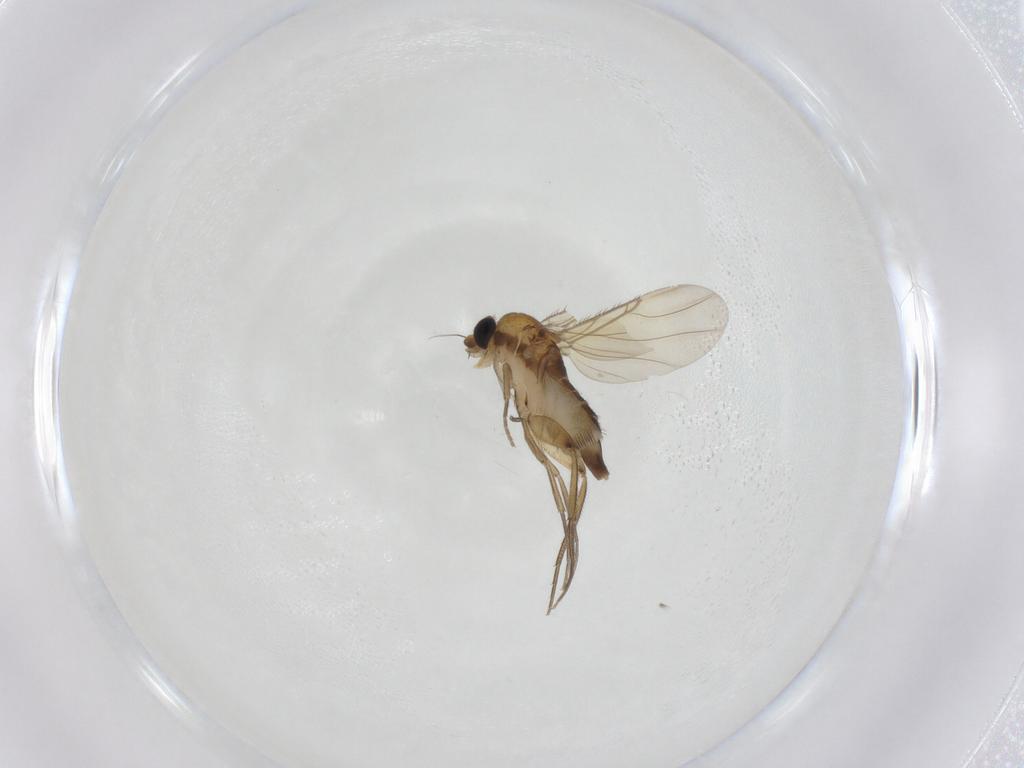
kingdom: Animalia
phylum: Arthropoda
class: Insecta
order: Diptera
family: Phoridae
